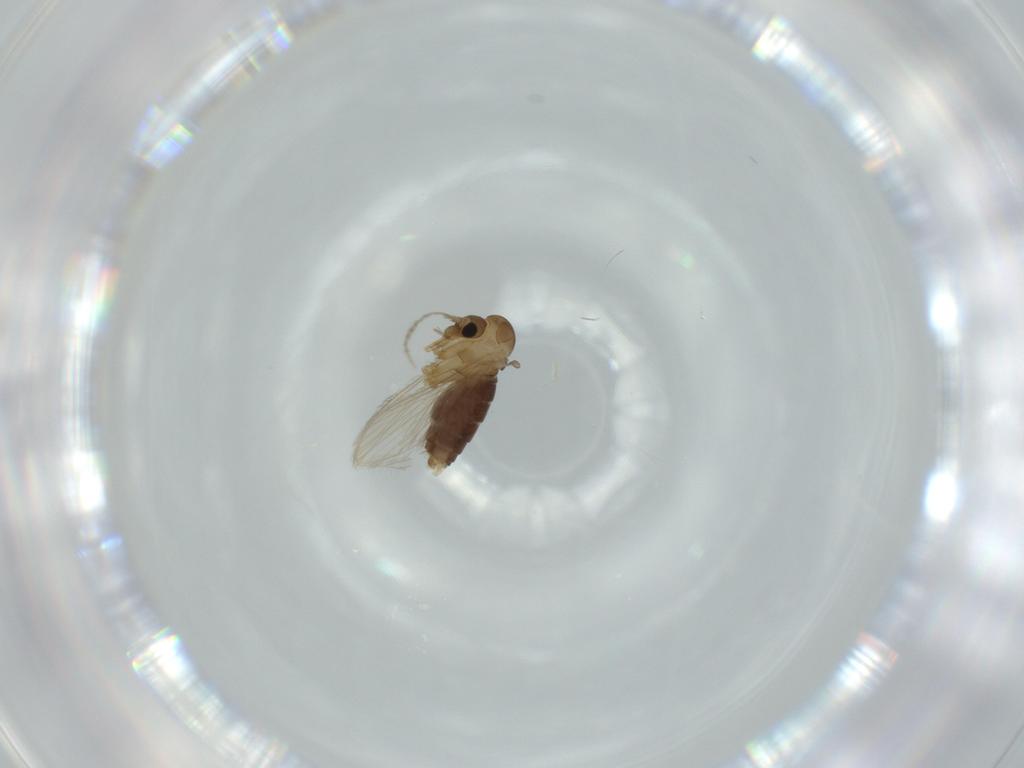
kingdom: Animalia
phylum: Arthropoda
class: Insecta
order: Diptera
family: Psychodidae
